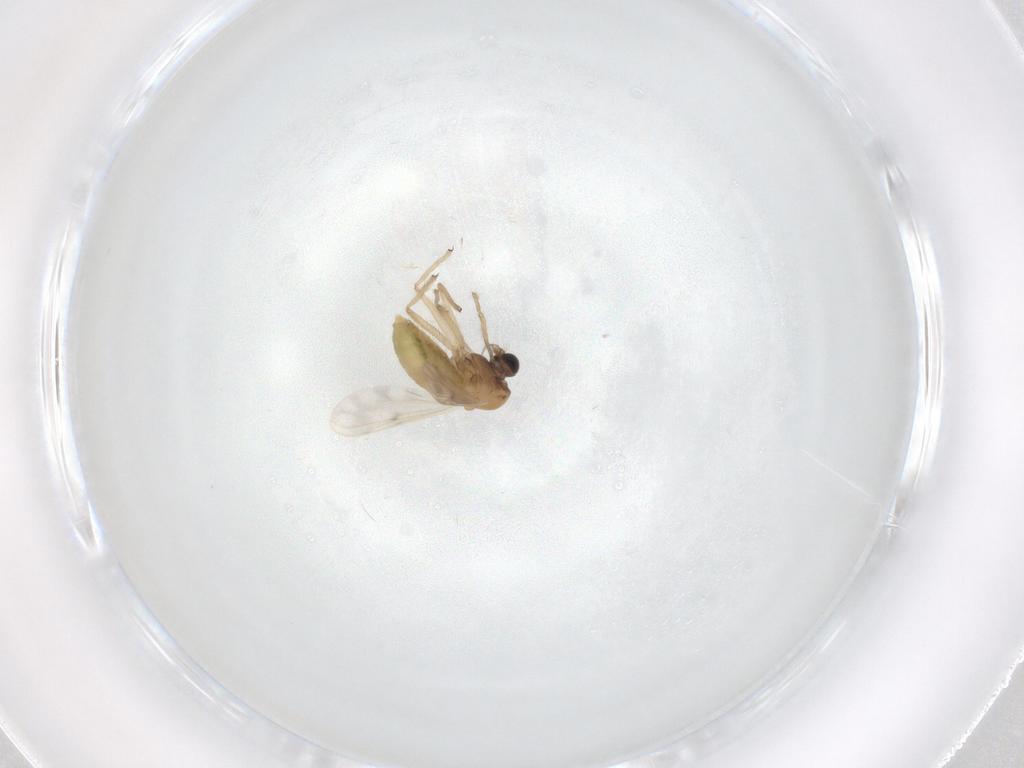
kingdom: Animalia
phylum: Arthropoda
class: Insecta
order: Diptera
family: Chironomidae
